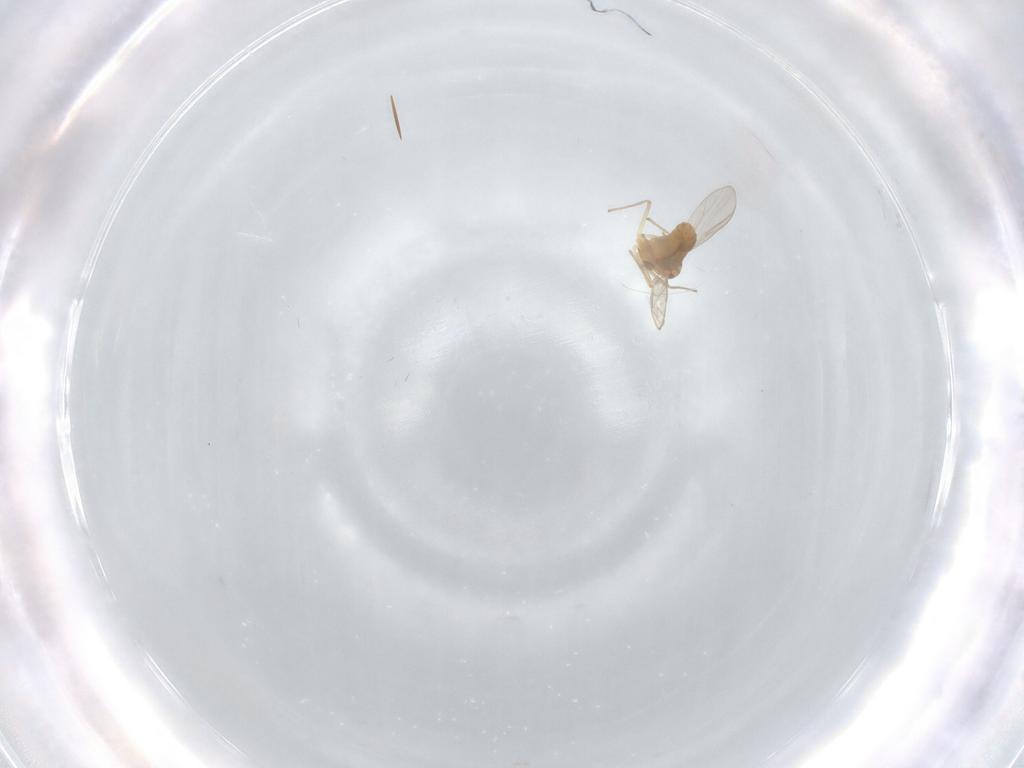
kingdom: Animalia
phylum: Arthropoda
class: Insecta
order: Diptera
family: Chironomidae
